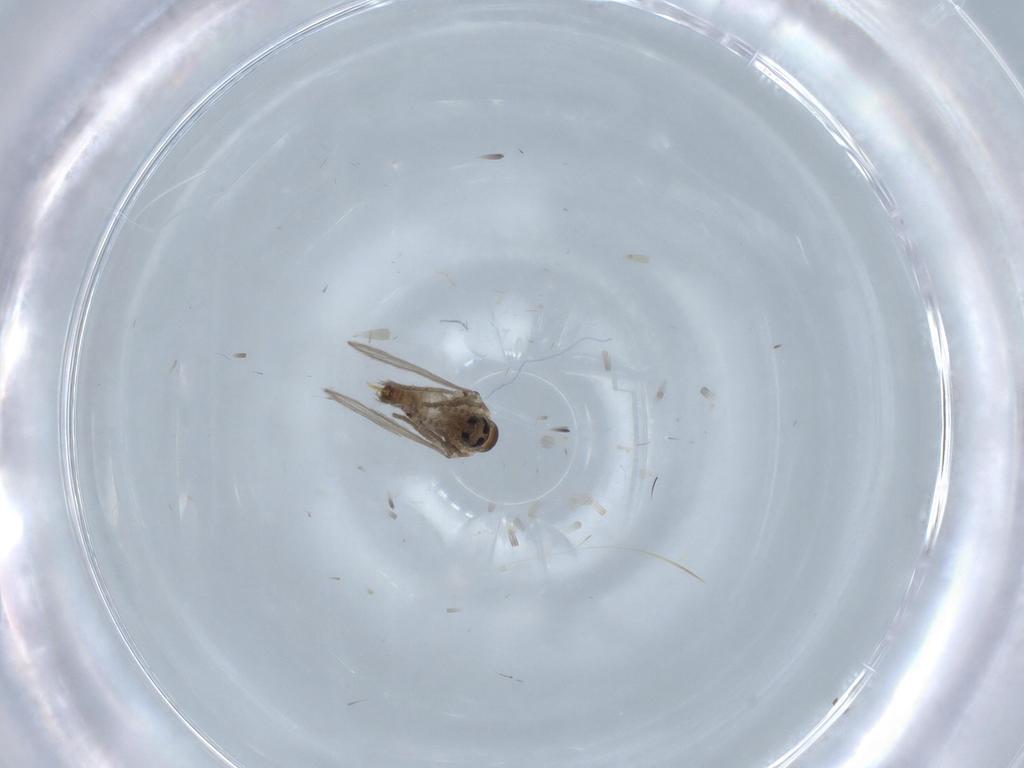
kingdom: Animalia
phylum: Arthropoda
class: Insecta
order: Diptera
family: Psychodidae
